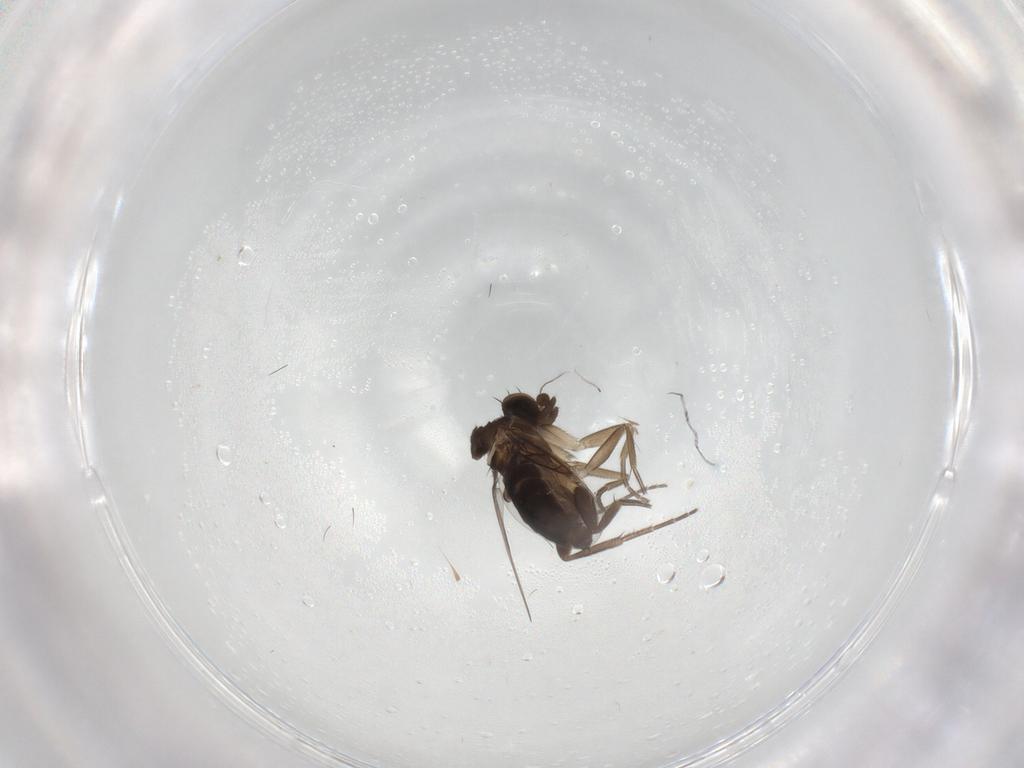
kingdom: Animalia
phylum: Arthropoda
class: Insecta
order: Diptera
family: Phoridae
